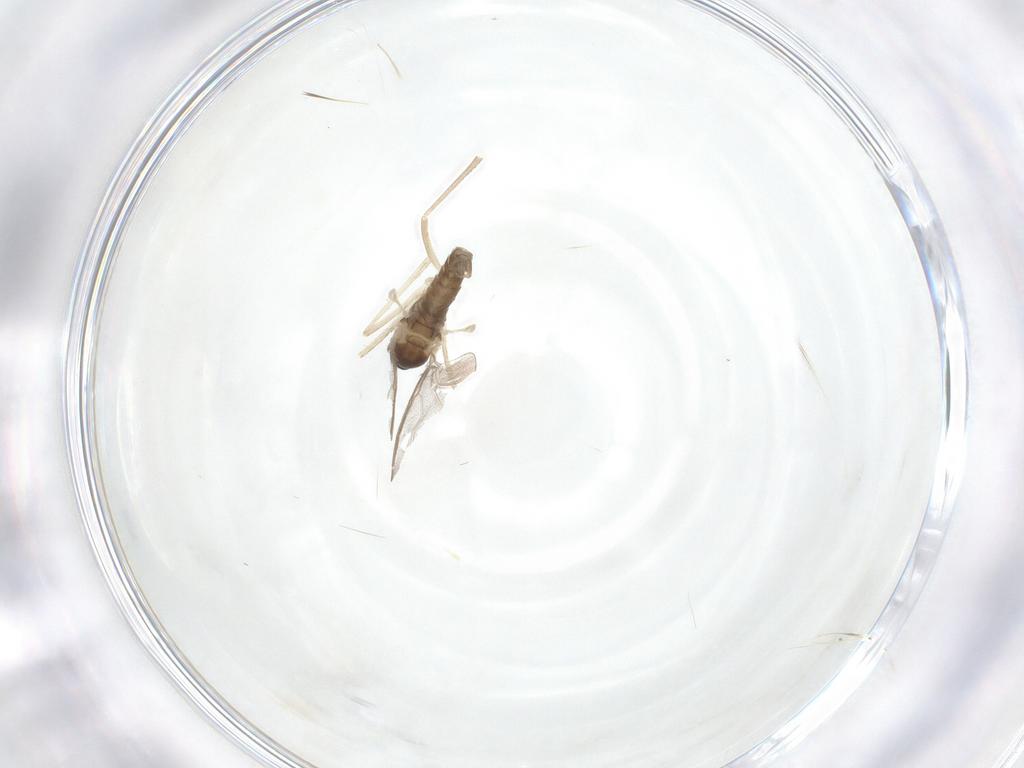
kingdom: Animalia
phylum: Arthropoda
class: Insecta
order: Diptera
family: Cecidomyiidae
